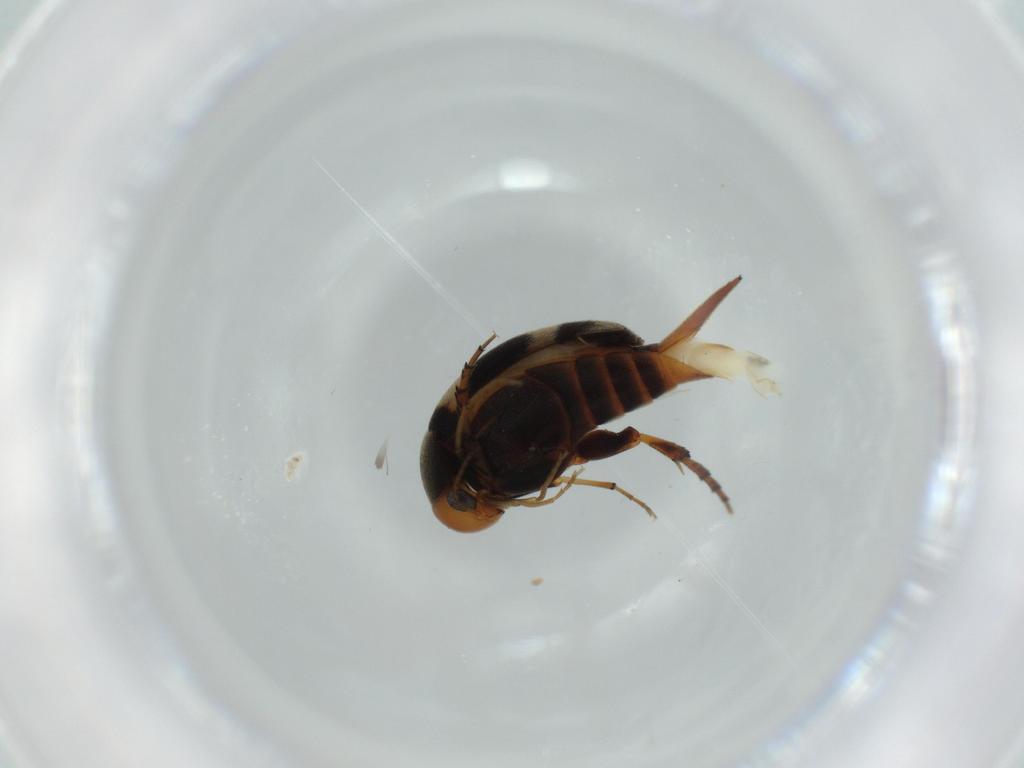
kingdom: Animalia
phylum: Arthropoda
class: Insecta
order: Coleoptera
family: Mordellidae
